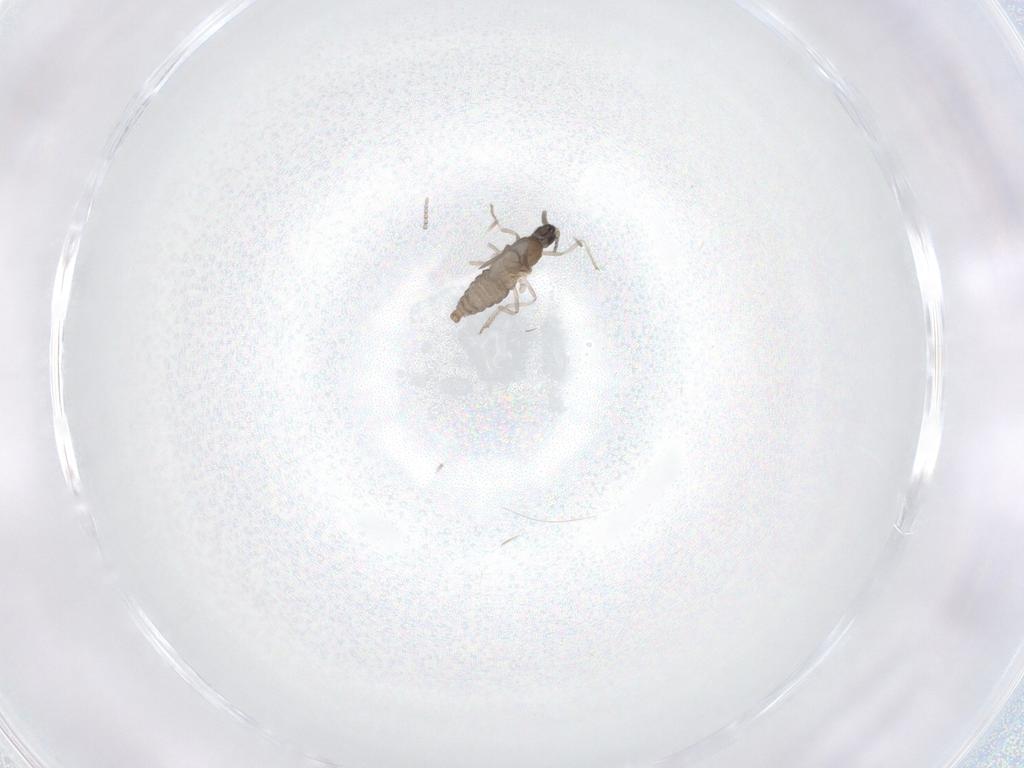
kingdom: Animalia
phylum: Arthropoda
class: Insecta
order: Diptera
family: Cecidomyiidae
